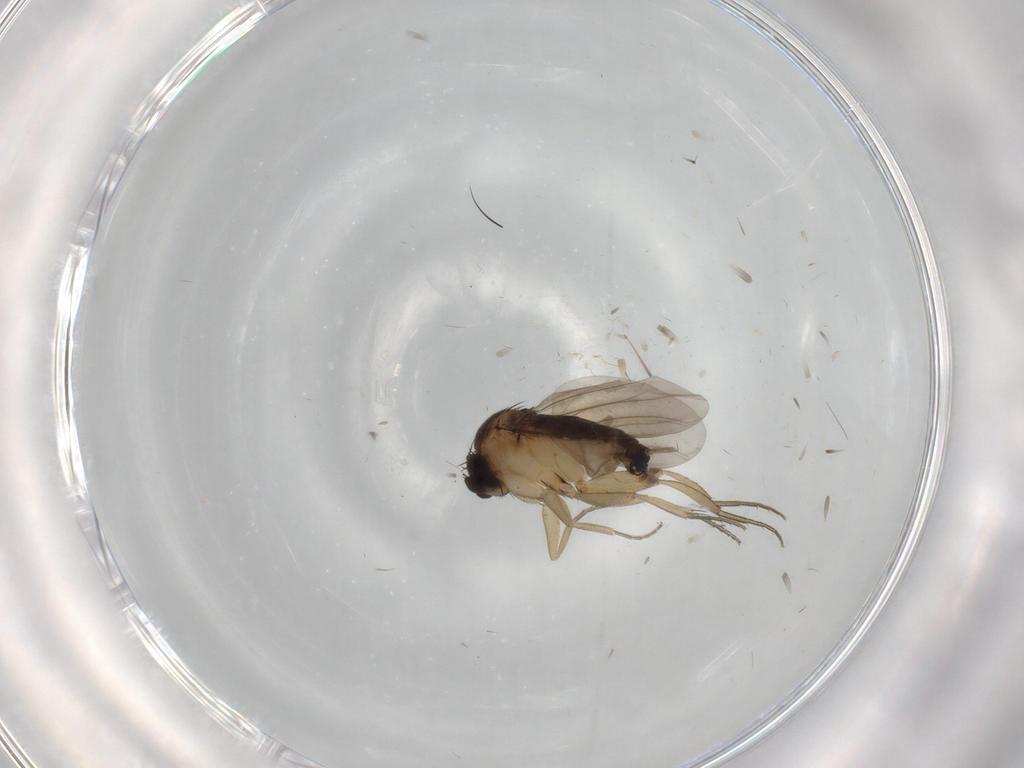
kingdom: Animalia
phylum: Arthropoda
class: Insecta
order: Diptera
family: Phoridae
